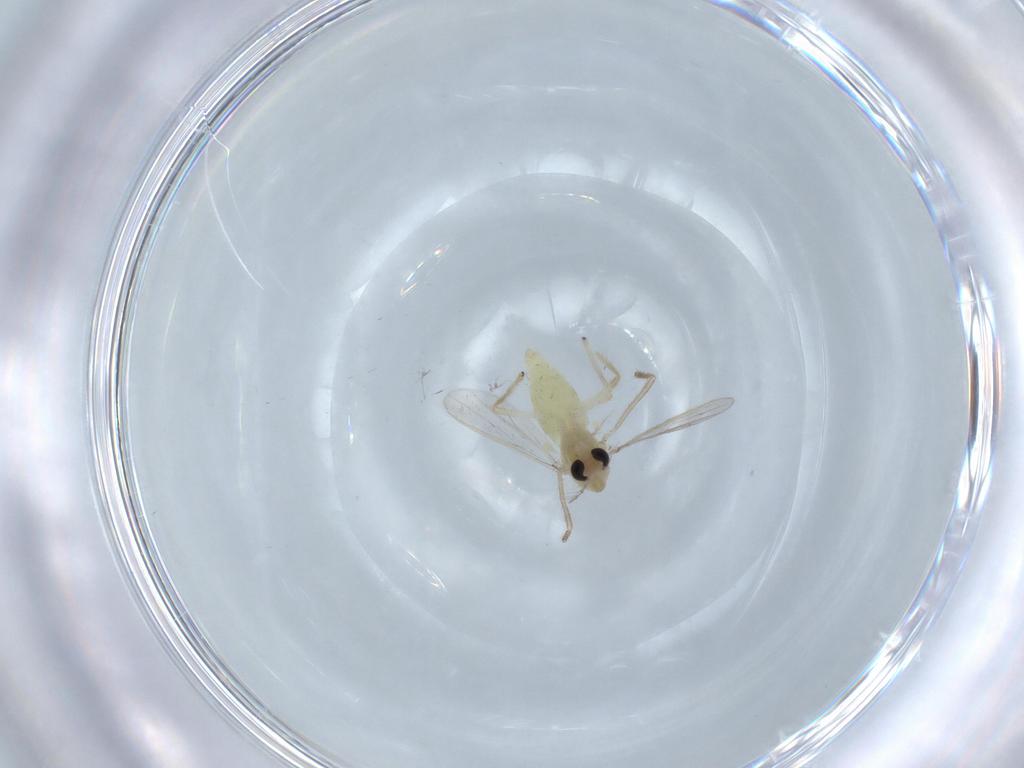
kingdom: Animalia
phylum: Arthropoda
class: Insecta
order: Diptera
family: Chironomidae
